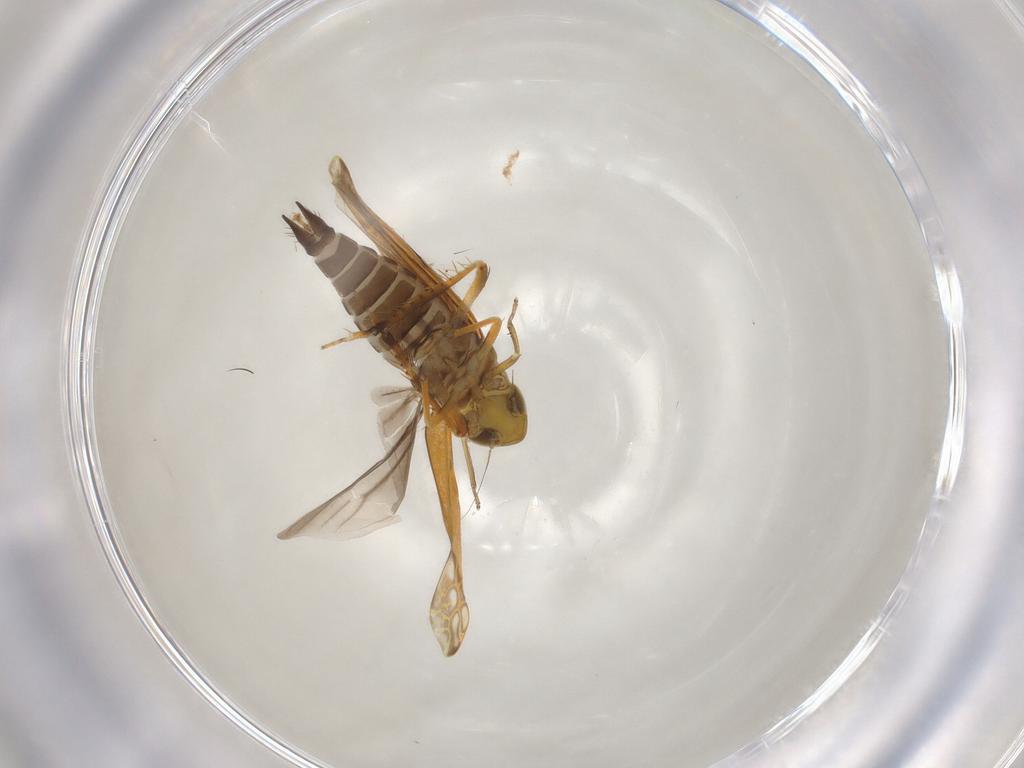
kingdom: Animalia
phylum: Arthropoda
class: Insecta
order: Hemiptera
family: Cicadellidae
